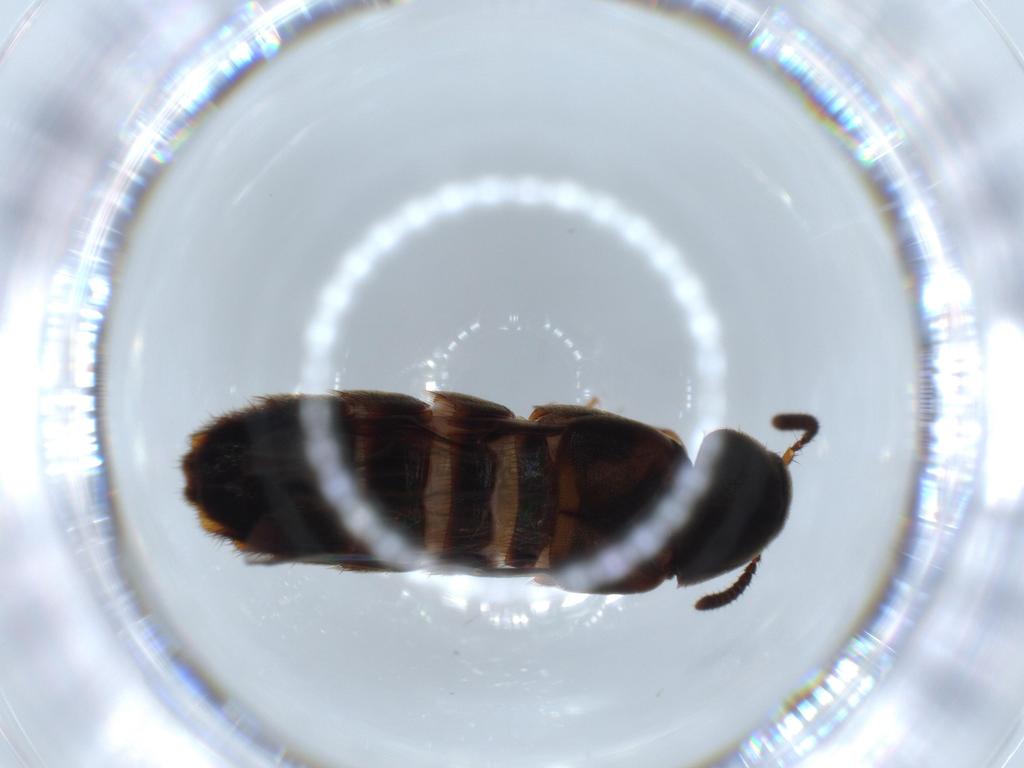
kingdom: Animalia
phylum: Arthropoda
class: Insecta
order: Coleoptera
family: Staphylinidae
